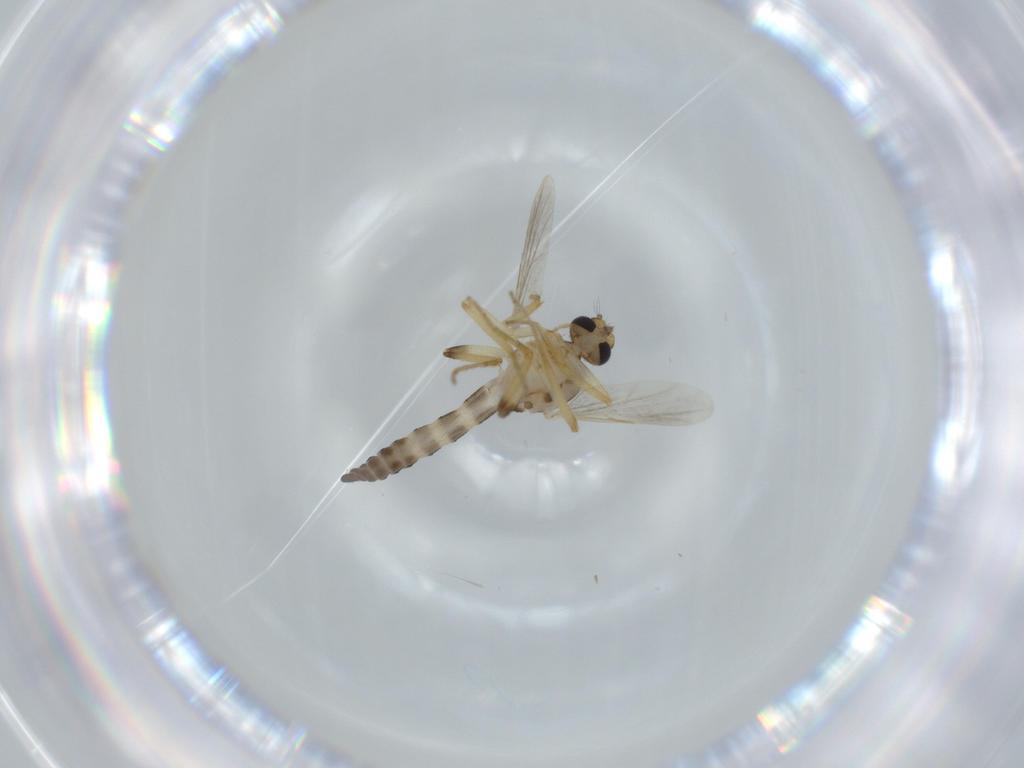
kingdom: Animalia
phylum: Arthropoda
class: Insecta
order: Diptera
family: Ceratopogonidae
